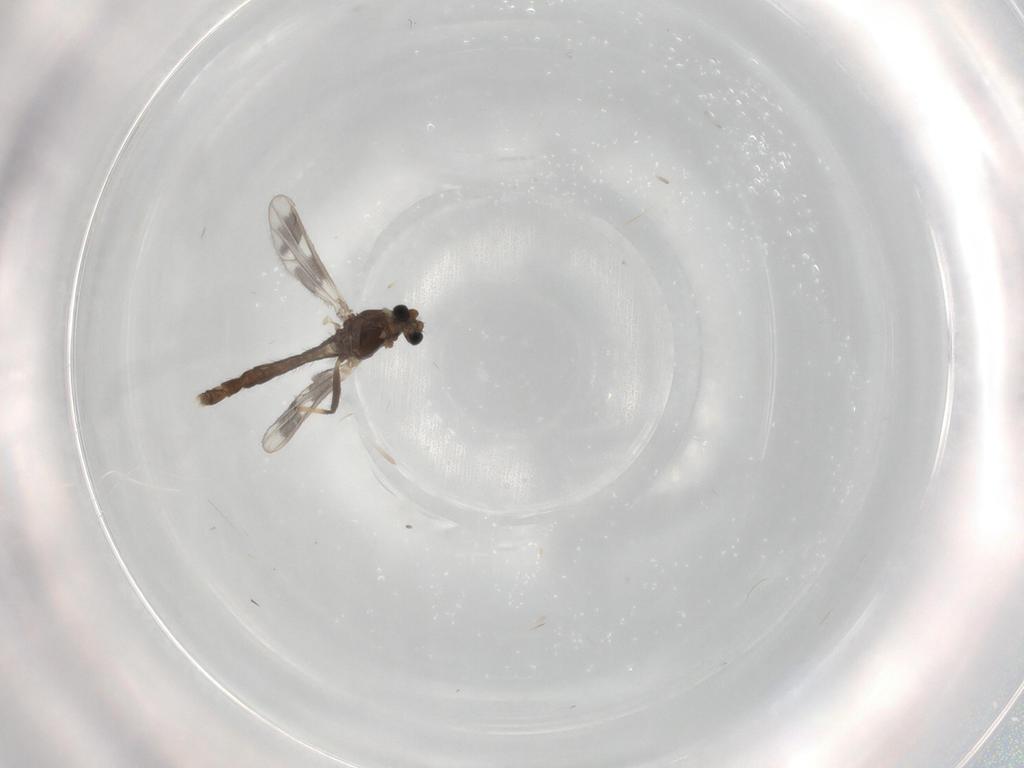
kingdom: Animalia
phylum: Arthropoda
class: Insecta
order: Diptera
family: Chironomidae
